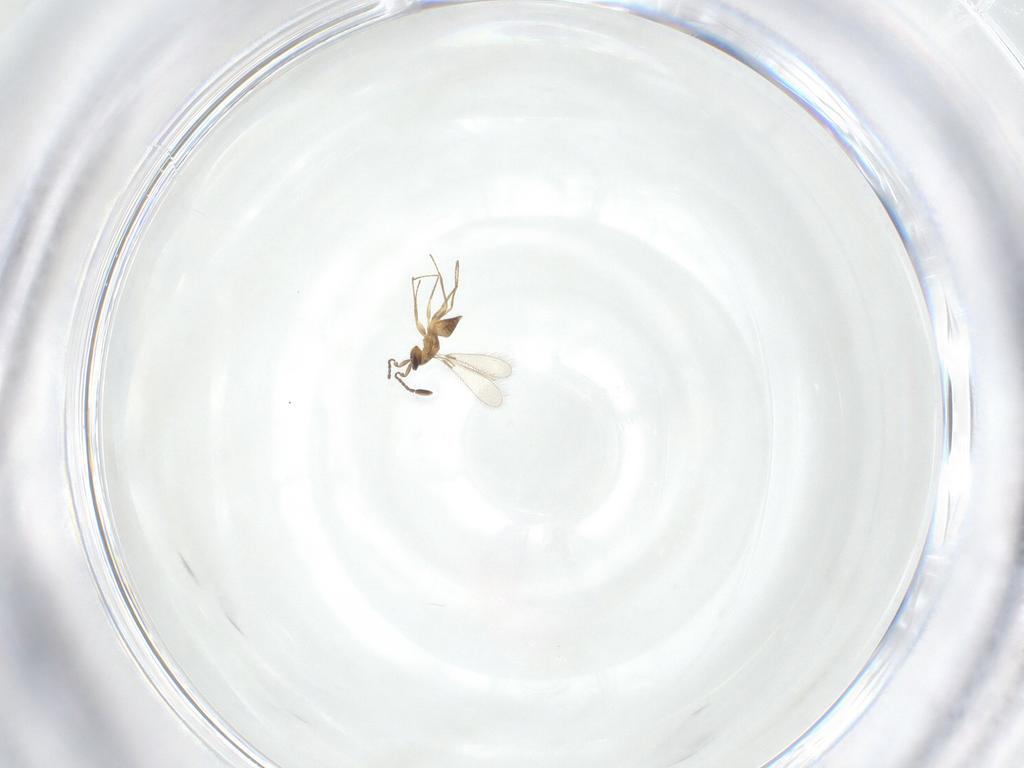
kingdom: Animalia
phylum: Arthropoda
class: Insecta
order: Hymenoptera
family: Mymaridae
